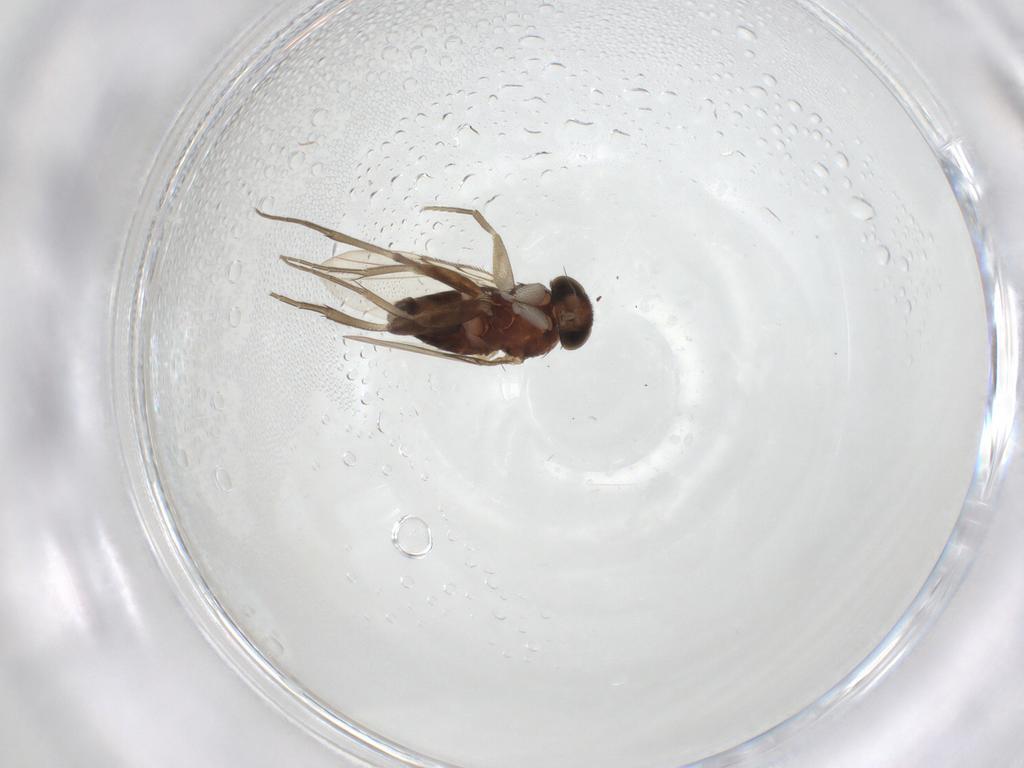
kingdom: Animalia
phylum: Arthropoda
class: Insecta
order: Diptera
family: Phoridae
